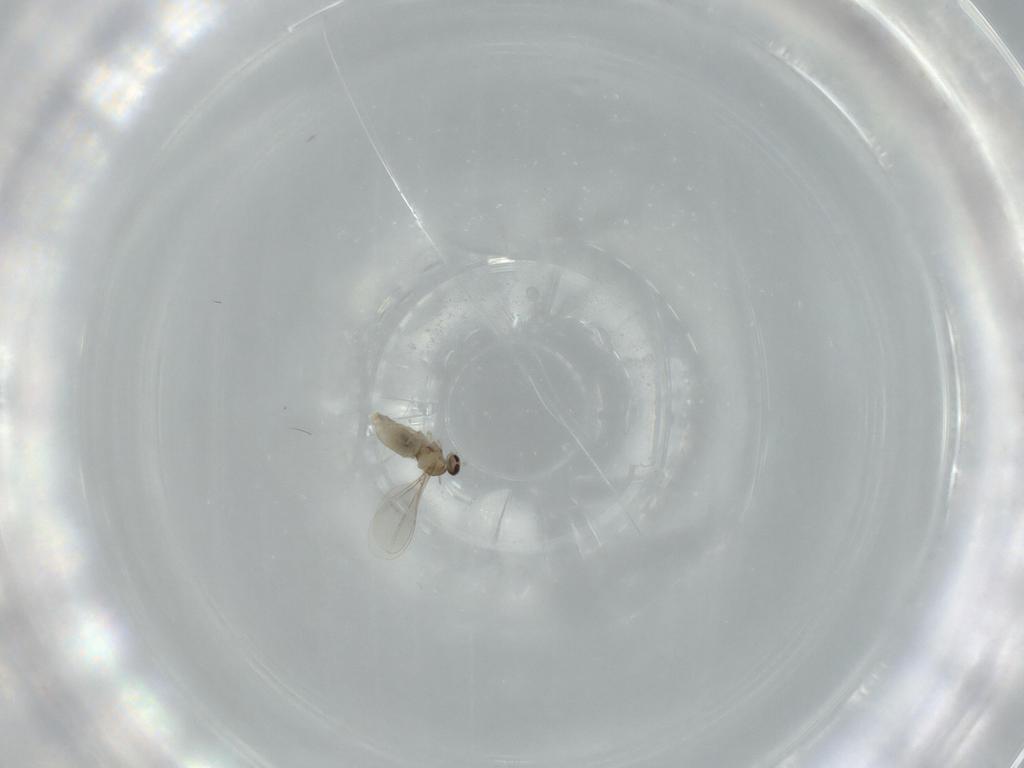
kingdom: Animalia
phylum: Arthropoda
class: Insecta
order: Diptera
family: Cecidomyiidae
